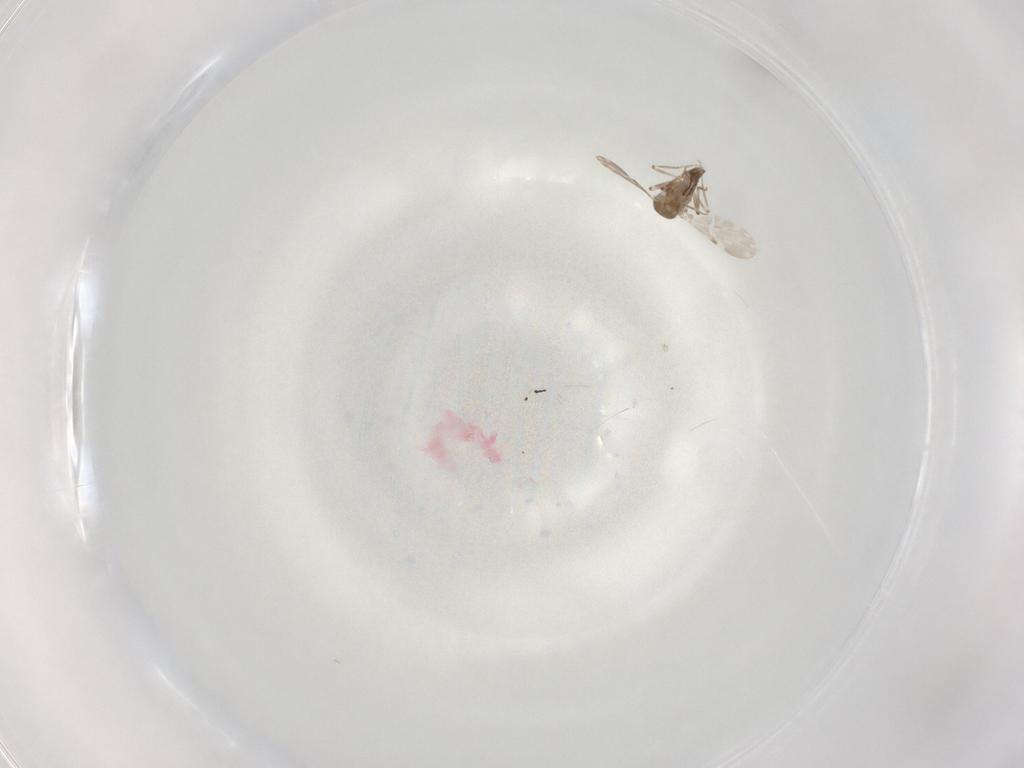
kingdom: Animalia
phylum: Arthropoda
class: Insecta
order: Diptera
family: Ceratopogonidae
